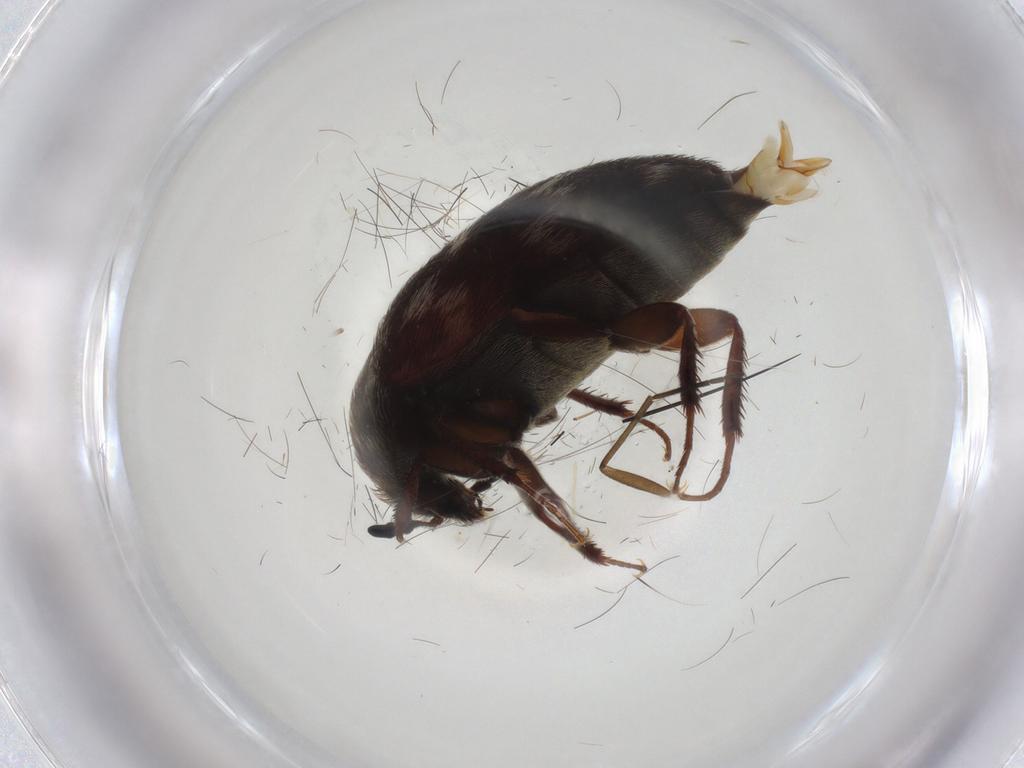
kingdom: Animalia
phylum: Arthropoda
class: Insecta
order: Coleoptera
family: Dermestidae
